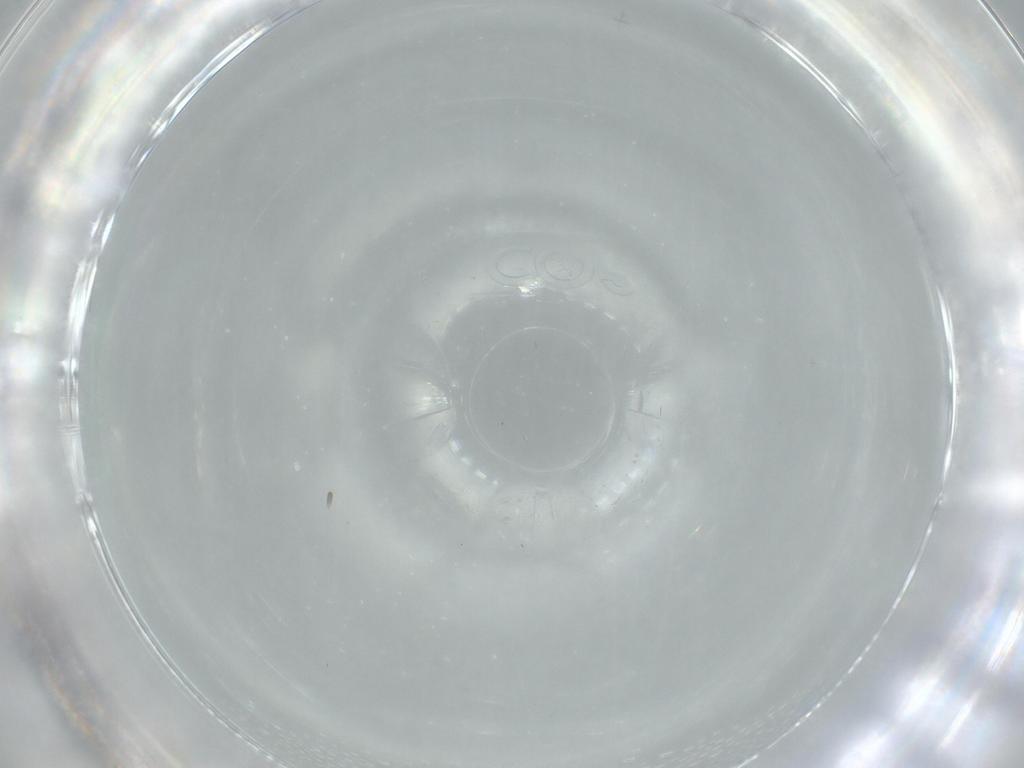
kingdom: Animalia
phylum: Arthropoda
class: Insecta
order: Diptera
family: Sciaridae
